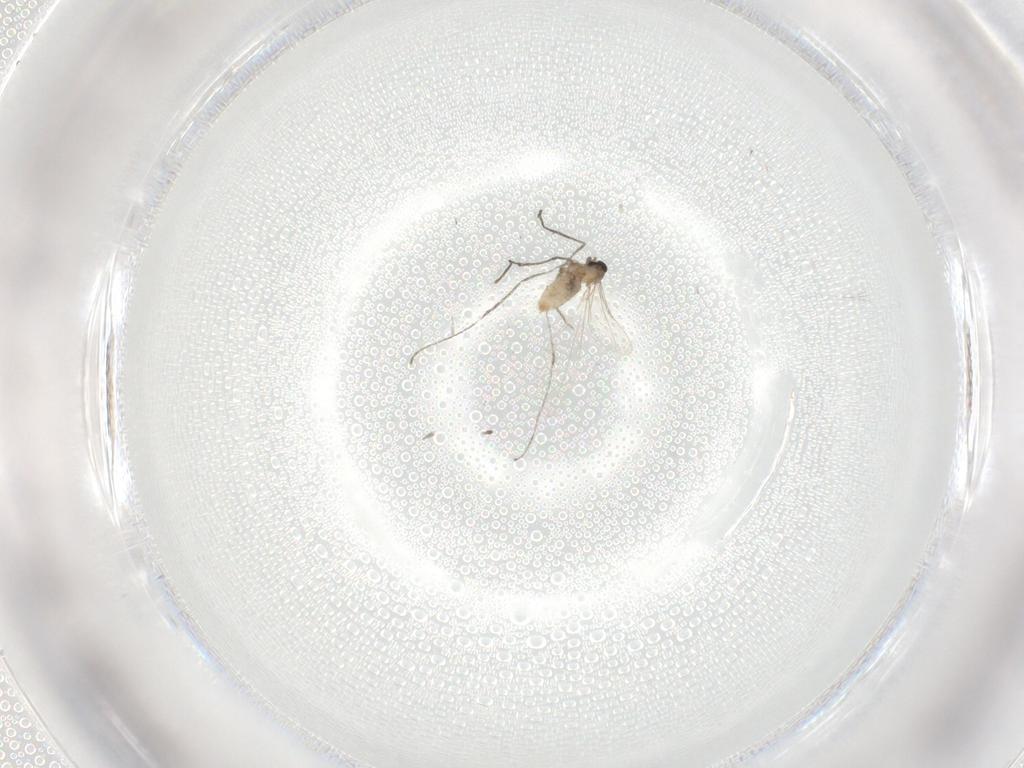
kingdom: Animalia
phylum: Arthropoda
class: Insecta
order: Diptera
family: Cecidomyiidae
